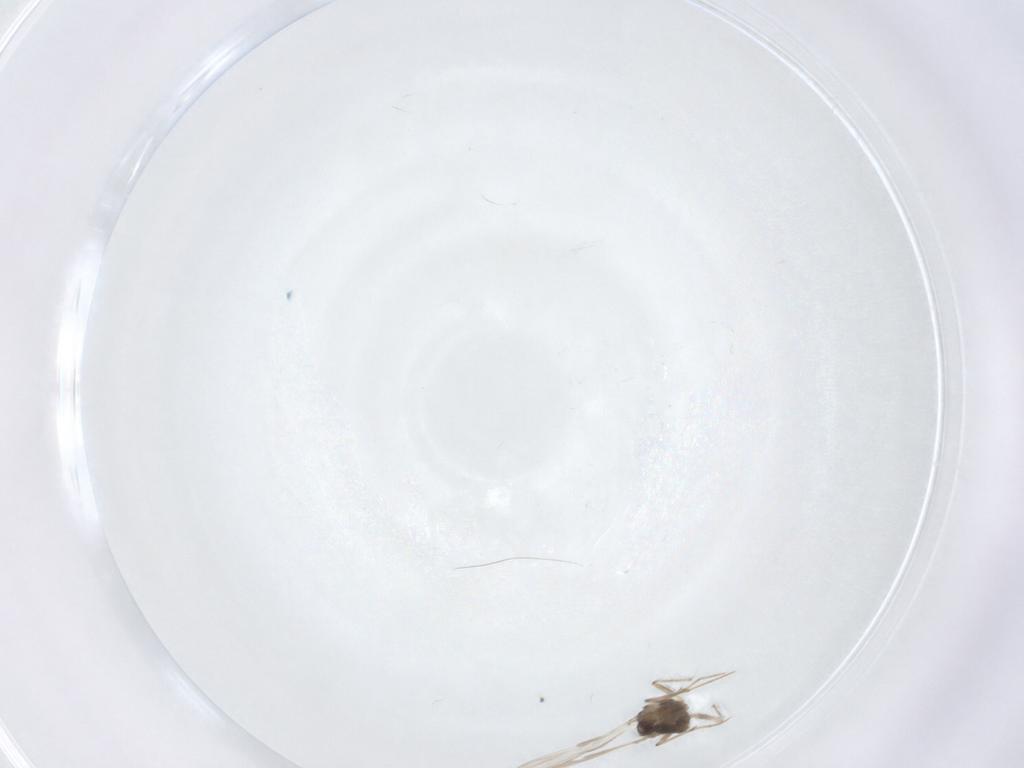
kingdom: Animalia
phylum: Arthropoda
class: Insecta
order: Diptera
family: Chironomidae
